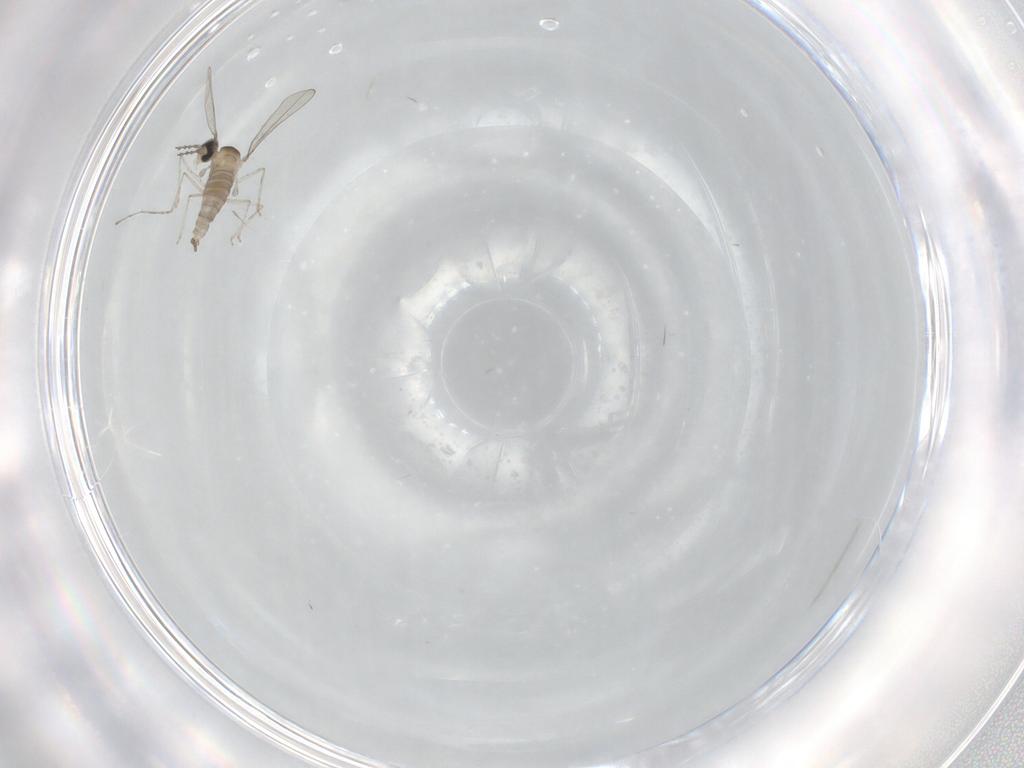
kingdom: Animalia
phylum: Arthropoda
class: Insecta
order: Diptera
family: Cecidomyiidae
